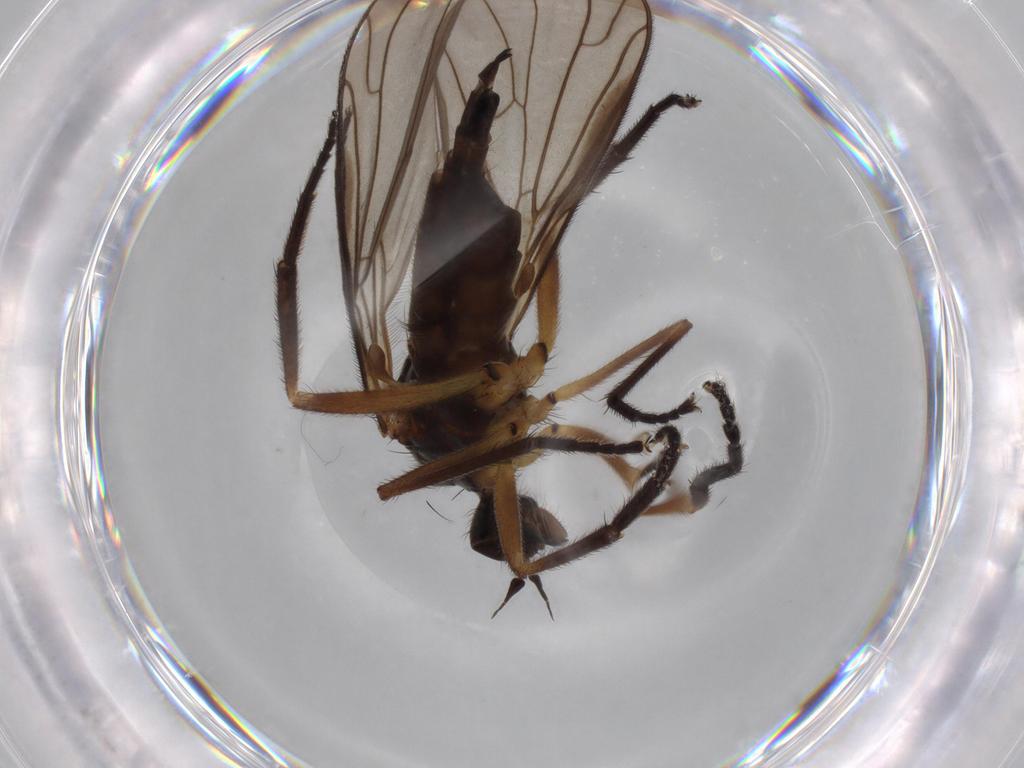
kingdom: Animalia
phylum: Arthropoda
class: Insecta
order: Diptera
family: Empididae
